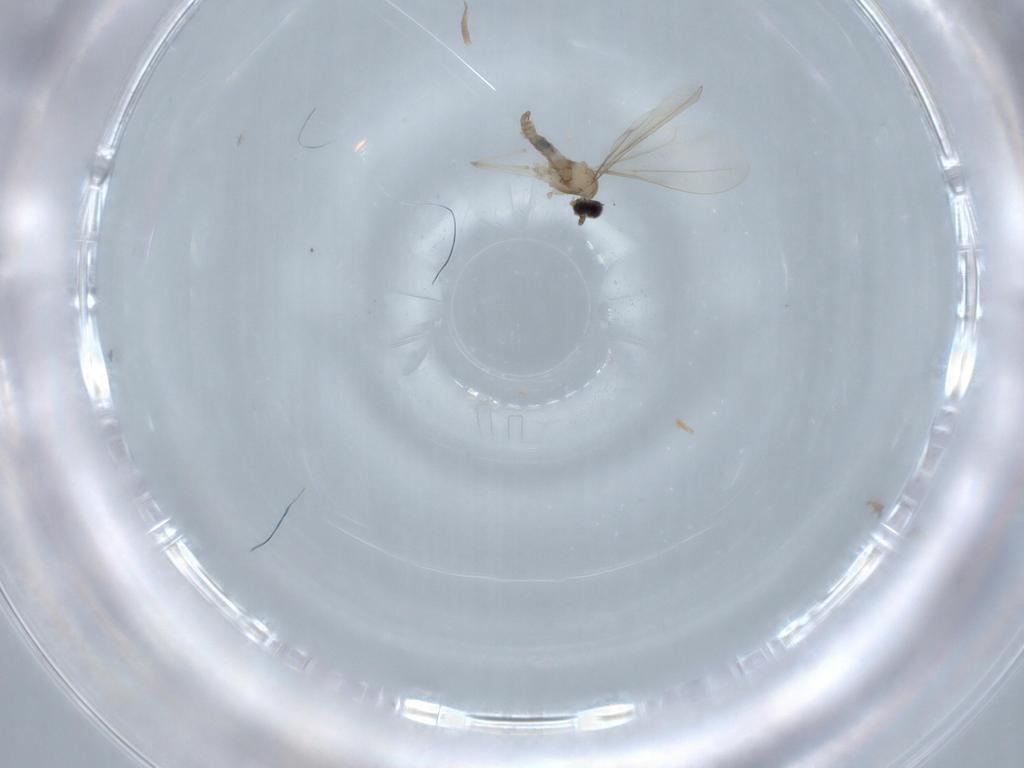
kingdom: Animalia
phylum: Arthropoda
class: Insecta
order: Diptera
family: Cecidomyiidae
